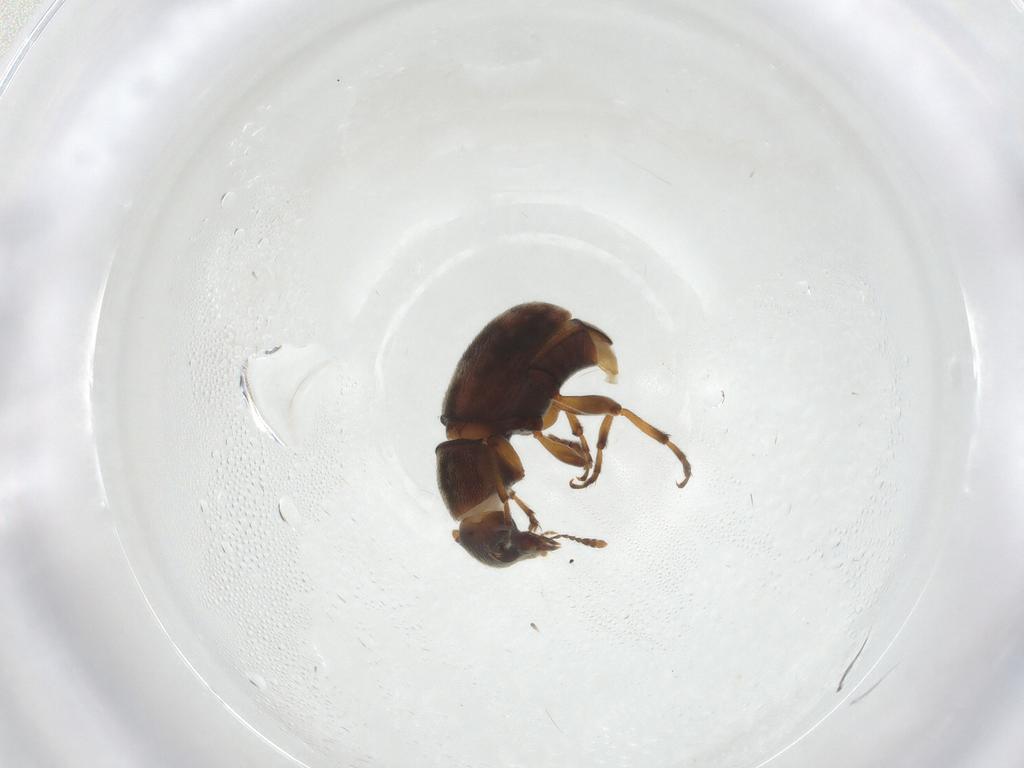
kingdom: Animalia
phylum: Arthropoda
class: Insecta
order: Coleoptera
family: Anthribidae
